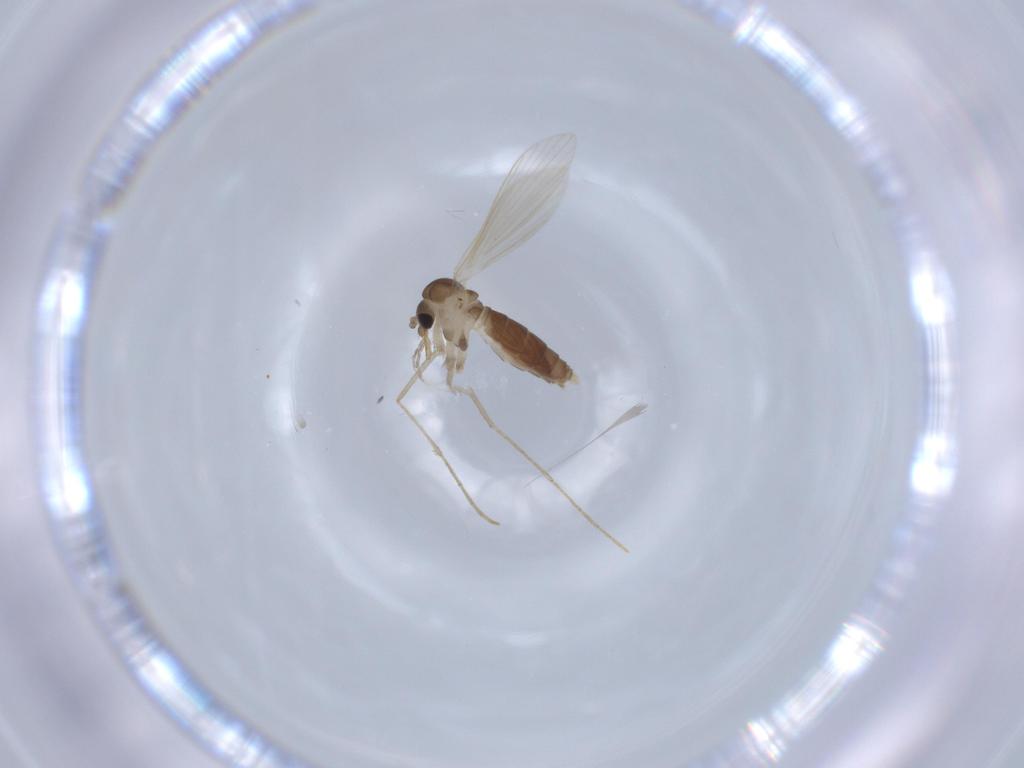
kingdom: Animalia
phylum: Arthropoda
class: Insecta
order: Diptera
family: Psychodidae
